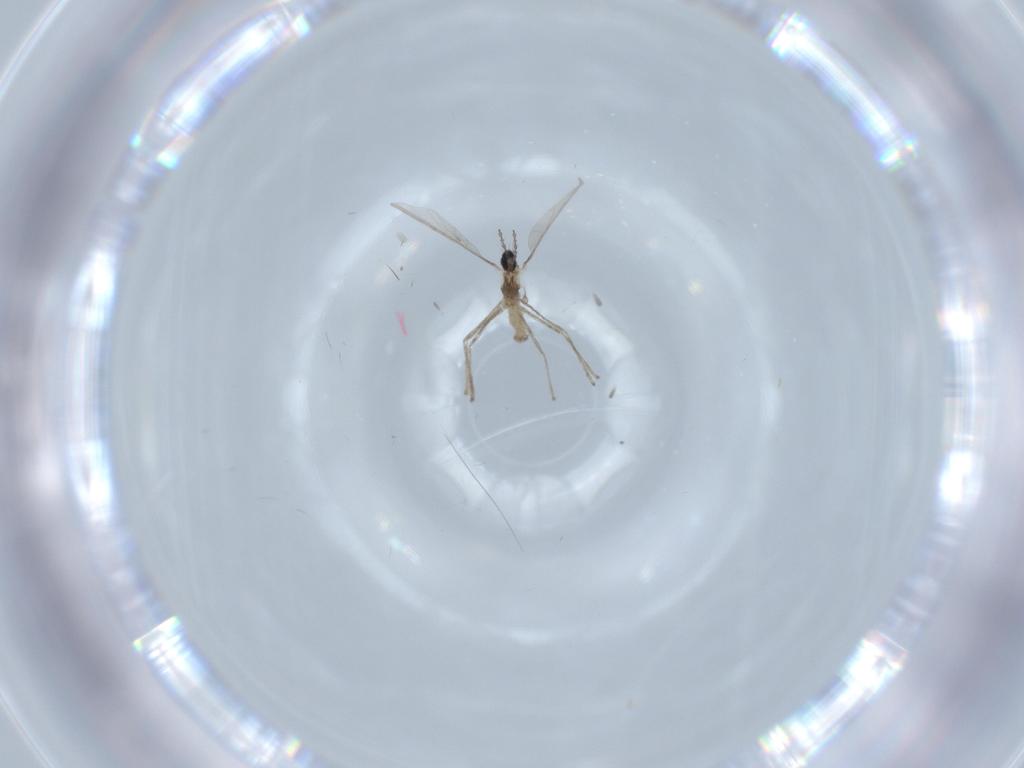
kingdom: Animalia
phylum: Arthropoda
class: Insecta
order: Diptera
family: Cecidomyiidae
